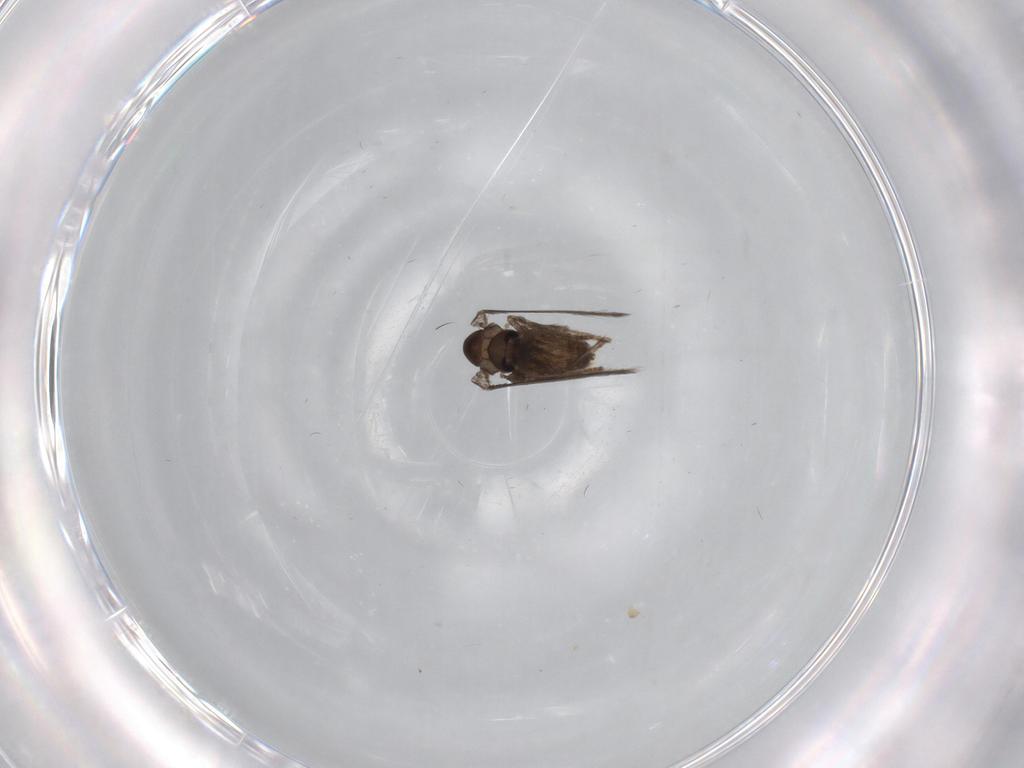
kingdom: Animalia
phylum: Arthropoda
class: Insecta
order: Diptera
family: Psychodidae
